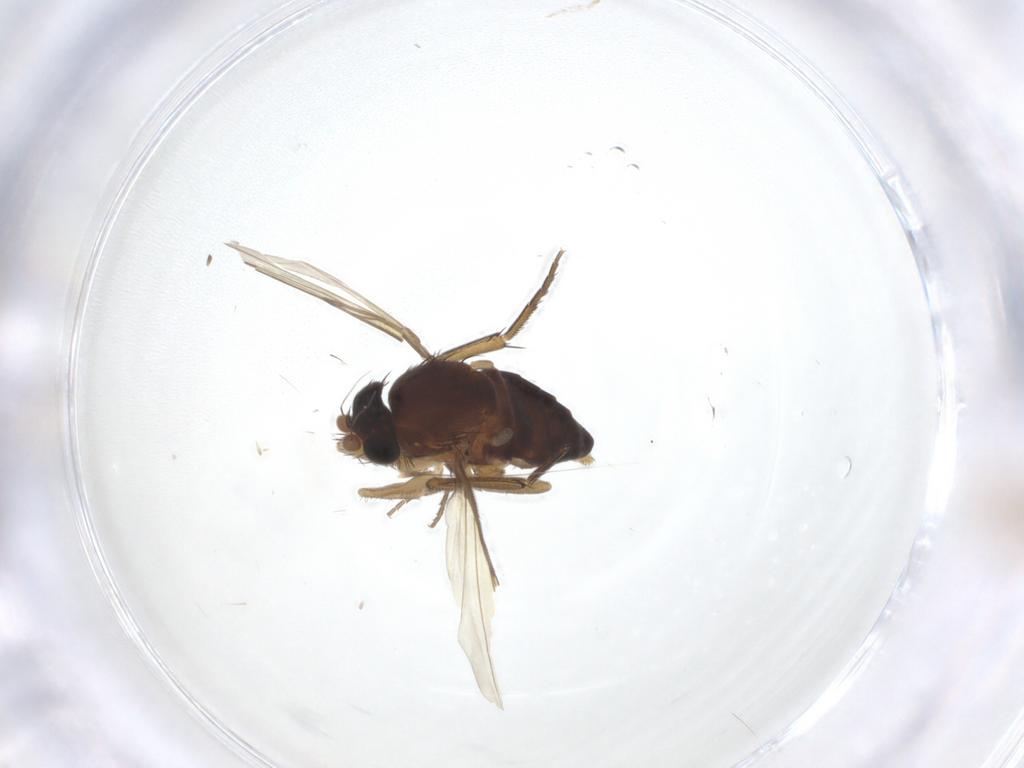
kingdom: Animalia
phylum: Arthropoda
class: Insecta
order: Diptera
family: Phoridae
